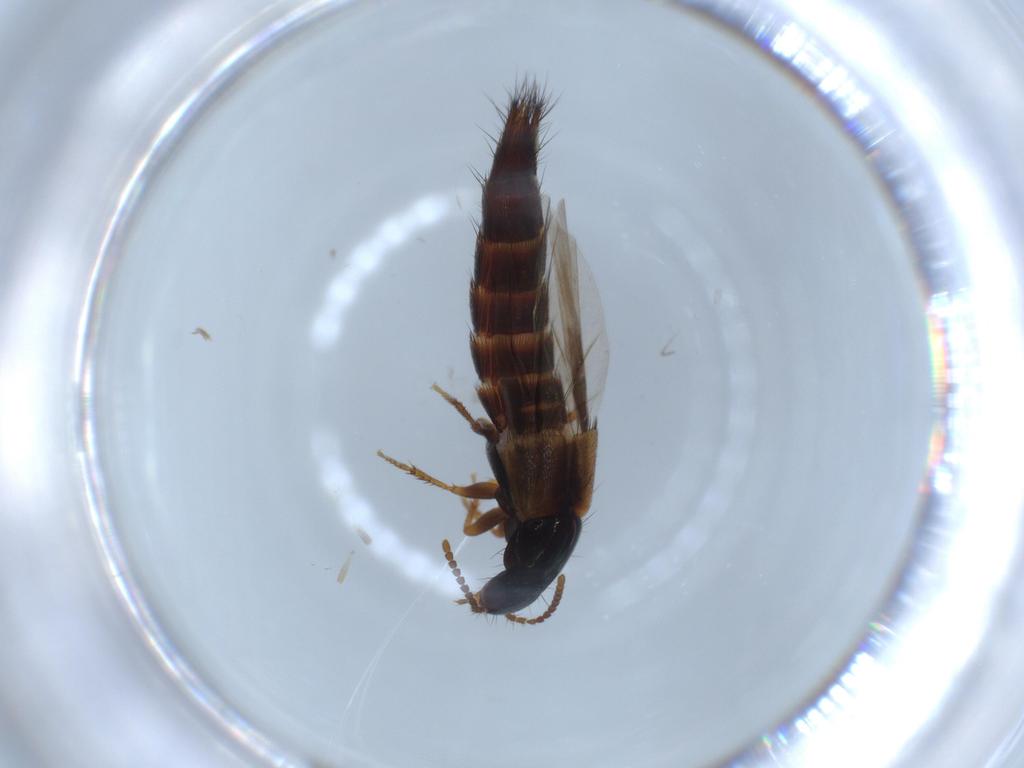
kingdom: Animalia
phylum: Arthropoda
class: Insecta
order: Coleoptera
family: Staphylinidae
